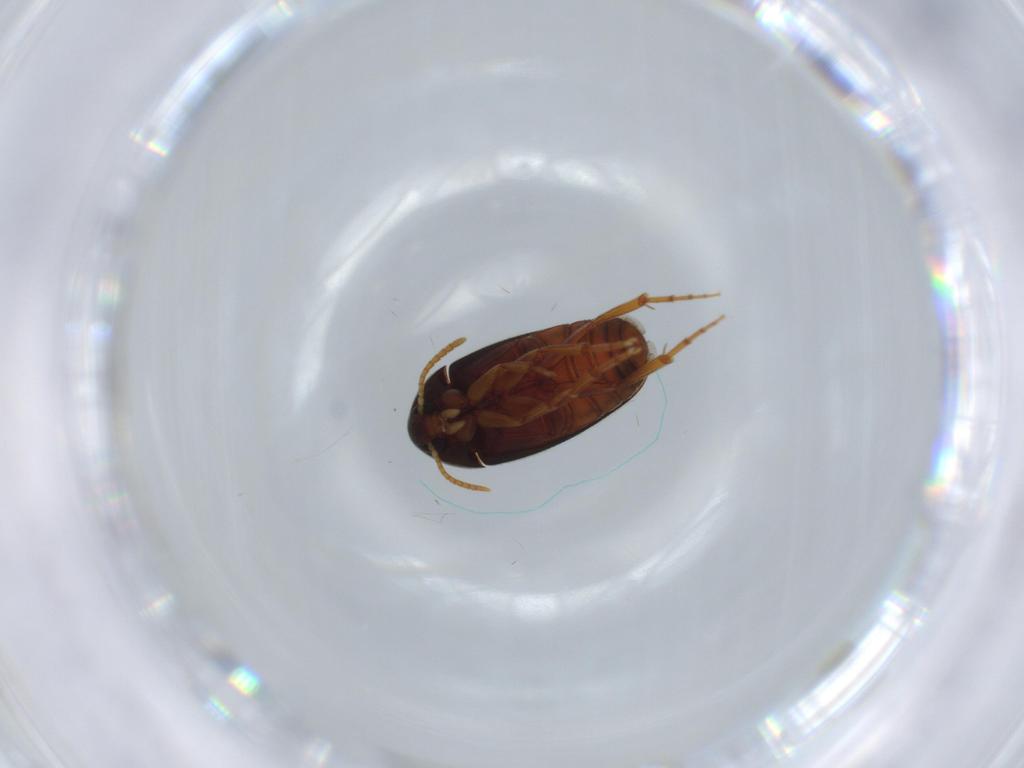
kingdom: Animalia
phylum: Arthropoda
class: Insecta
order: Coleoptera
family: Scraptiidae
